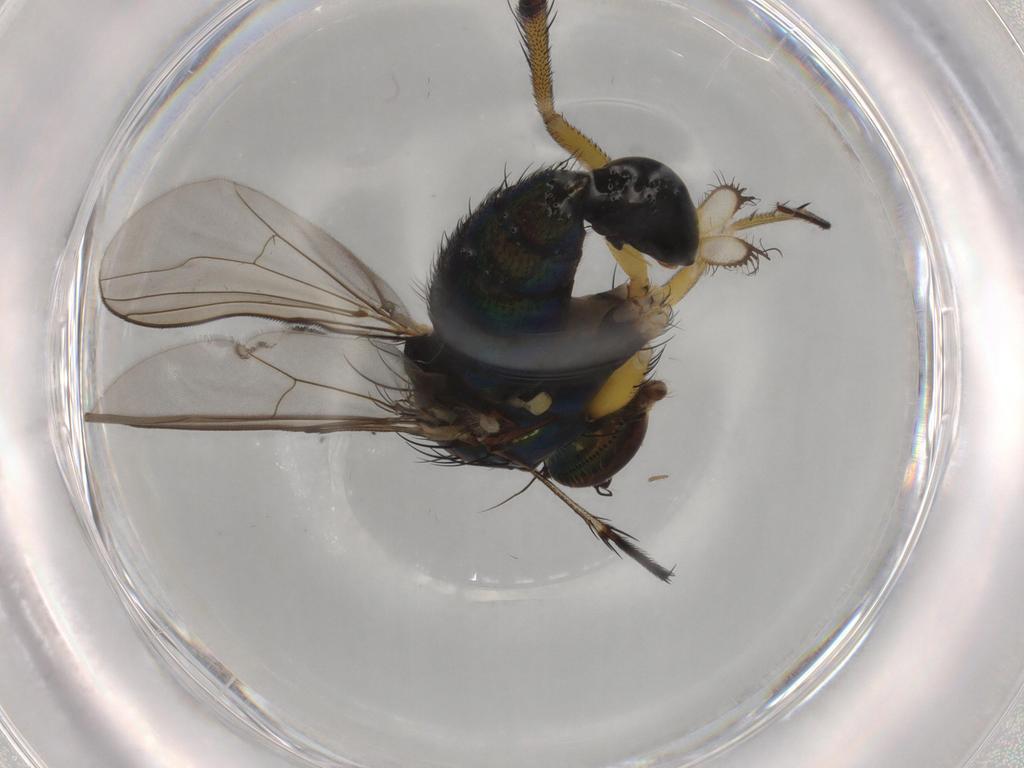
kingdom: Animalia
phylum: Arthropoda
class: Insecta
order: Diptera
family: Dolichopodidae
